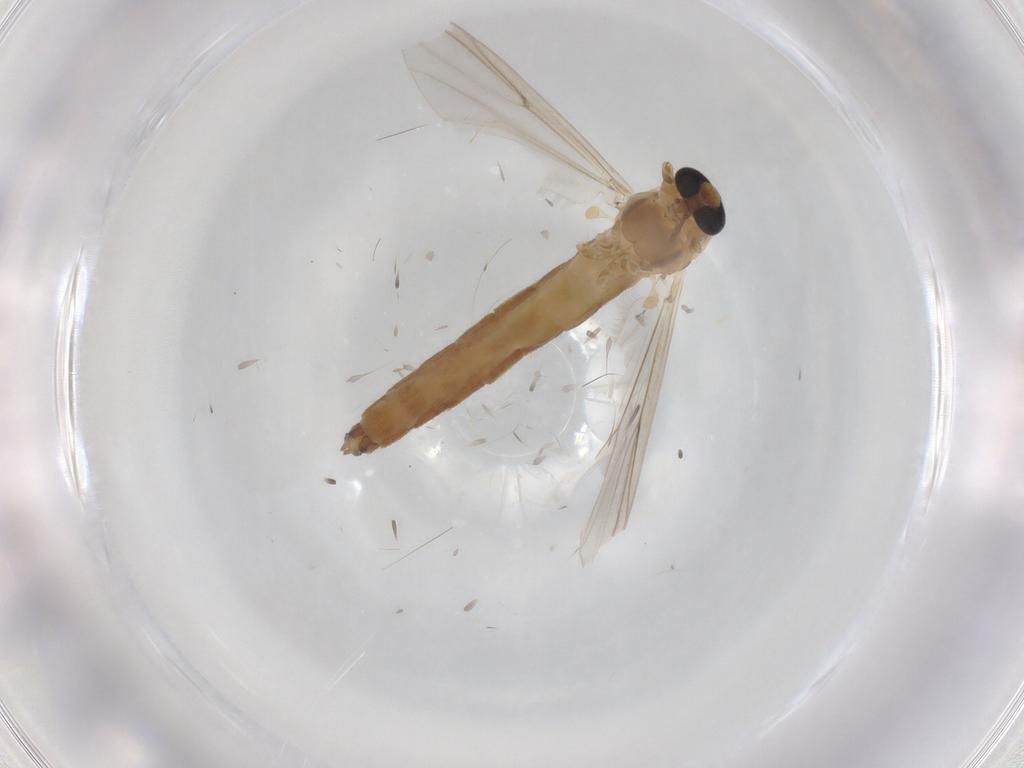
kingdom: Animalia
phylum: Arthropoda
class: Insecta
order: Diptera
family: Chironomidae
